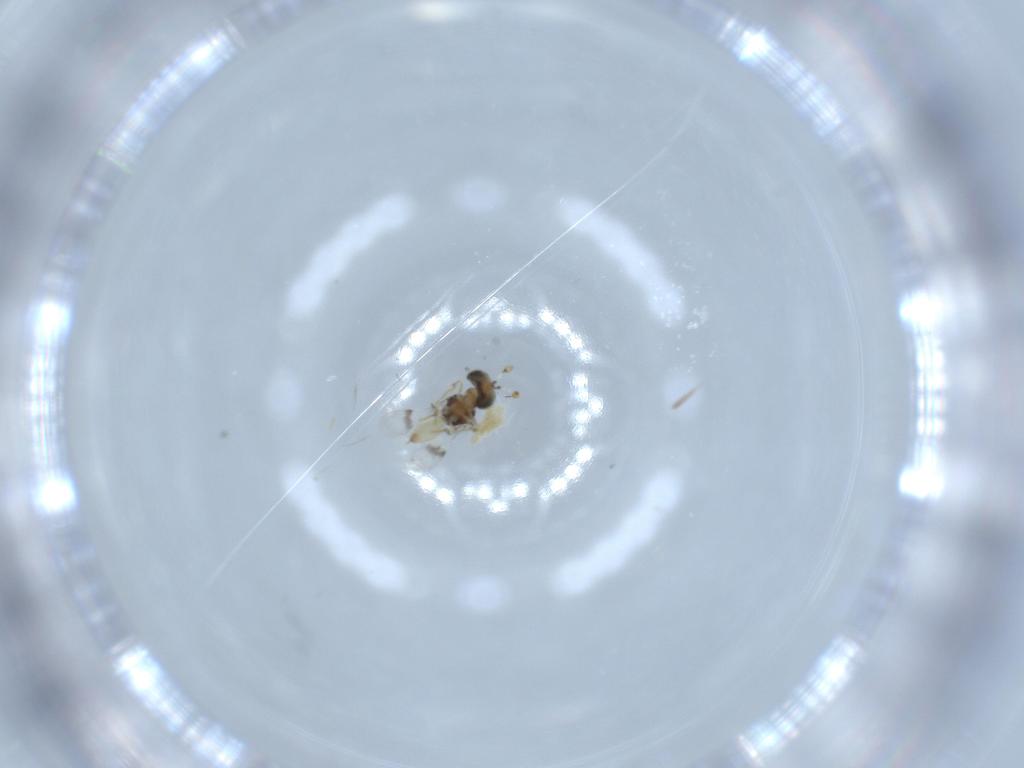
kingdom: Animalia
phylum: Arthropoda
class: Insecta
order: Hymenoptera
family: Scelionidae
